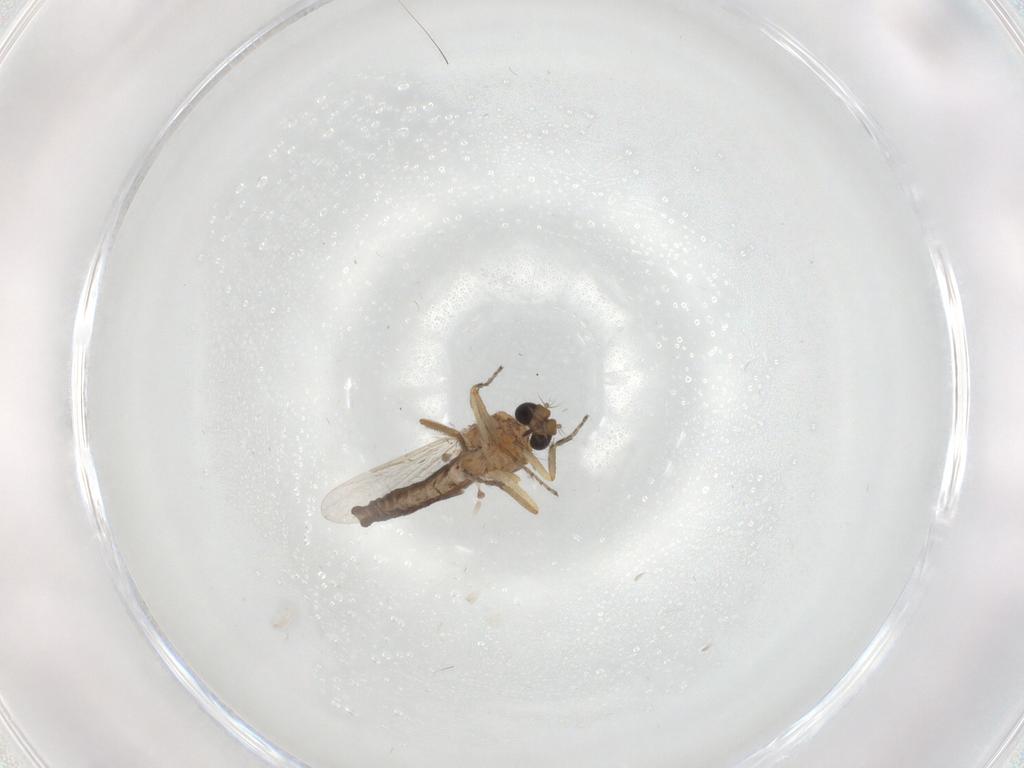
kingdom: Animalia
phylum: Arthropoda
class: Insecta
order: Diptera
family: Ceratopogonidae
